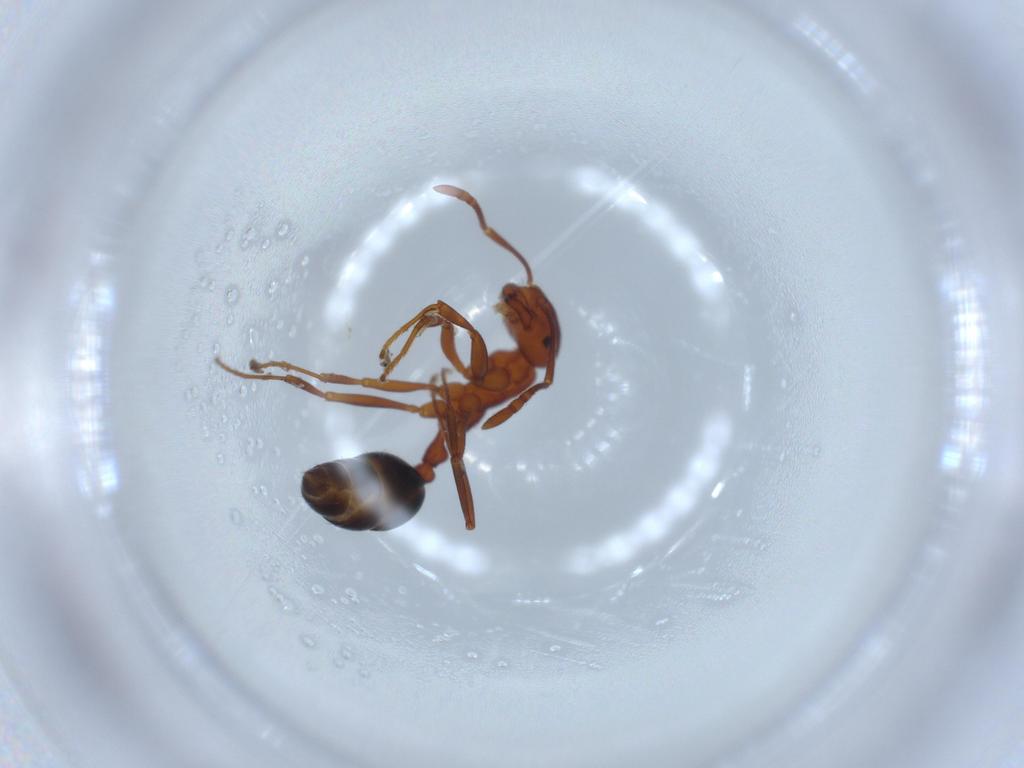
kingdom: Animalia
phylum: Arthropoda
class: Insecta
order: Hymenoptera
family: Formicidae
